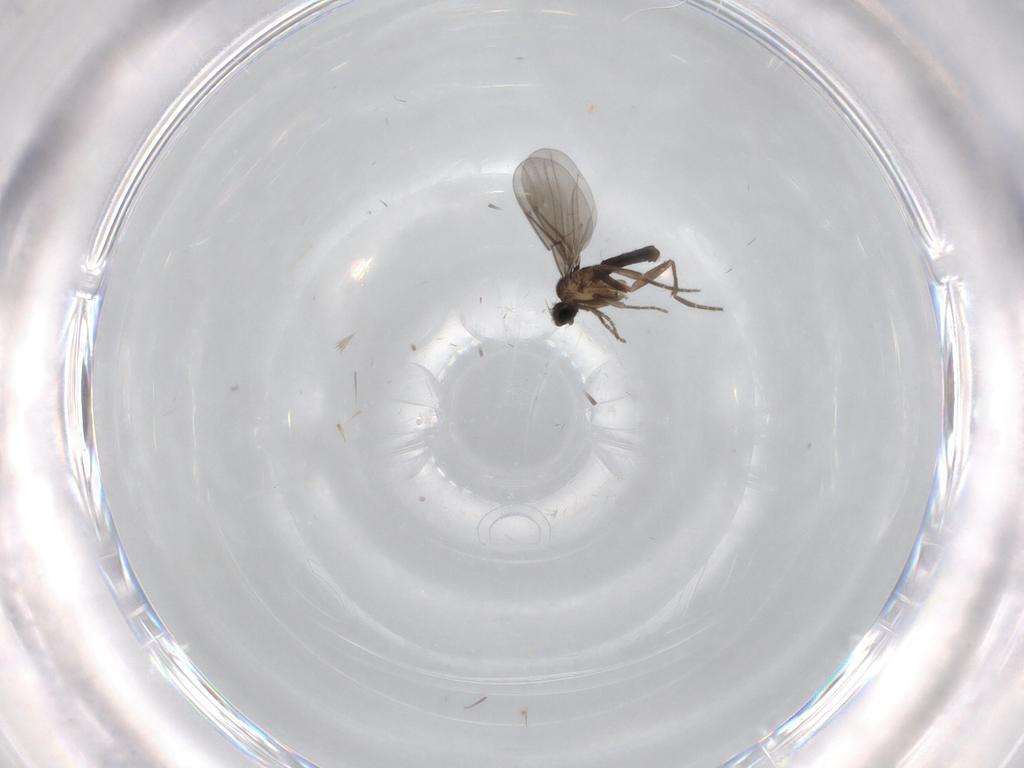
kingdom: Animalia
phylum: Arthropoda
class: Insecta
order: Diptera
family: Phoridae
